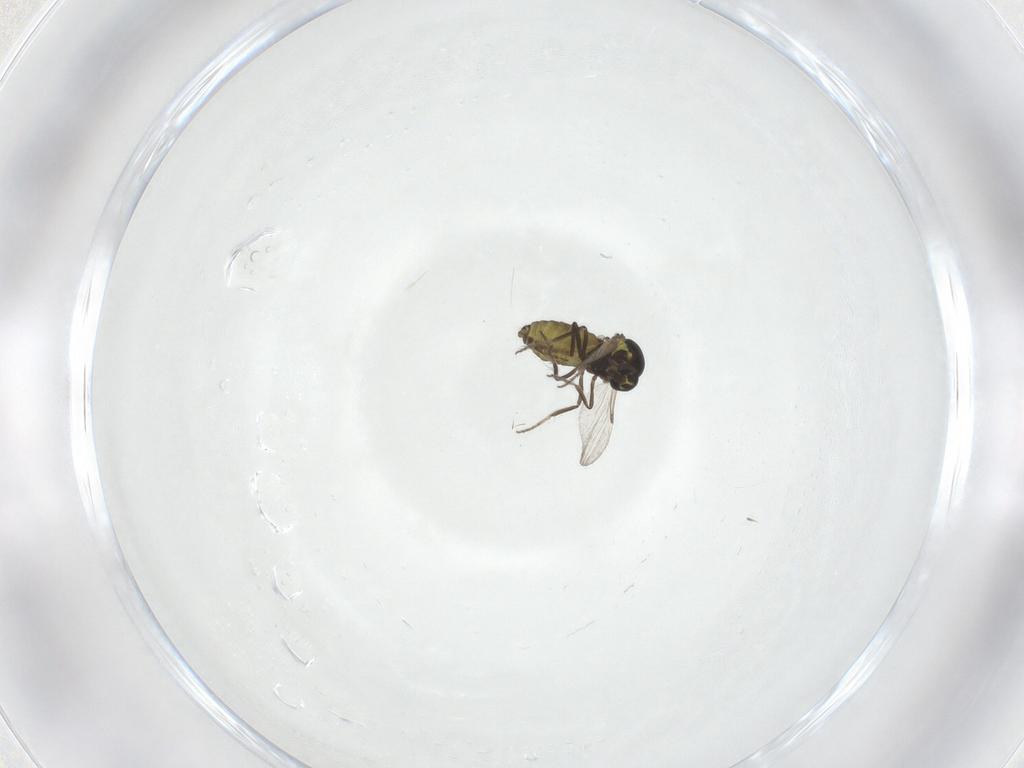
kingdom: Animalia
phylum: Arthropoda
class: Insecta
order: Diptera
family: Ceratopogonidae
